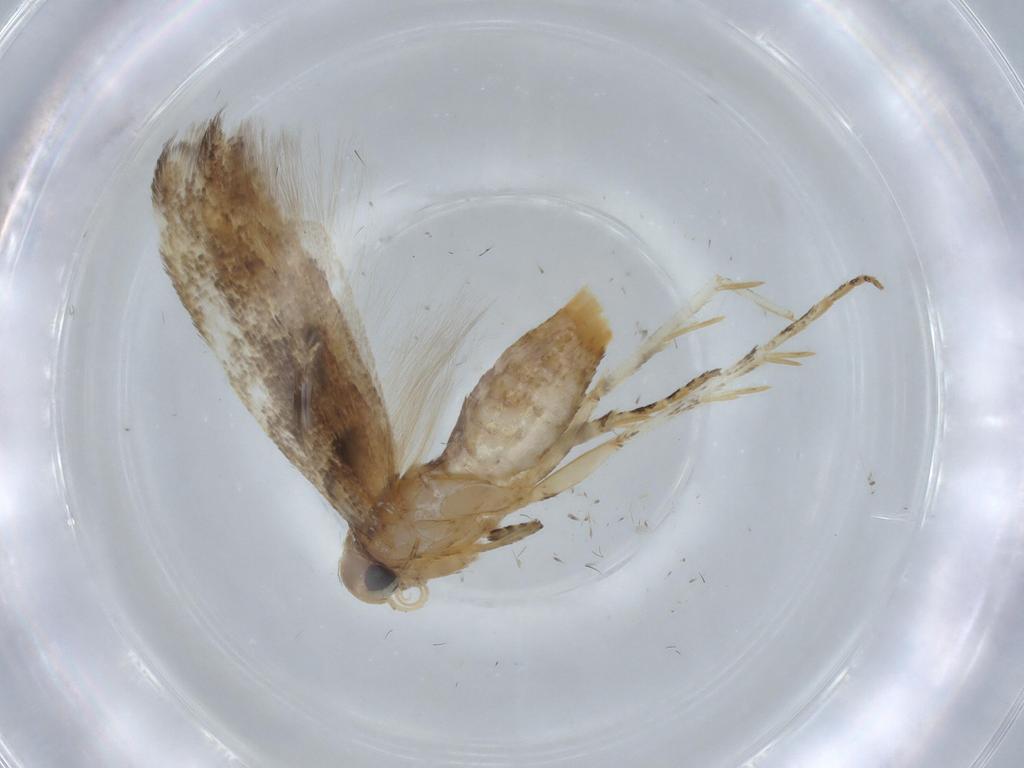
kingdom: Animalia
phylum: Arthropoda
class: Insecta
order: Lepidoptera
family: Gelechiidae
